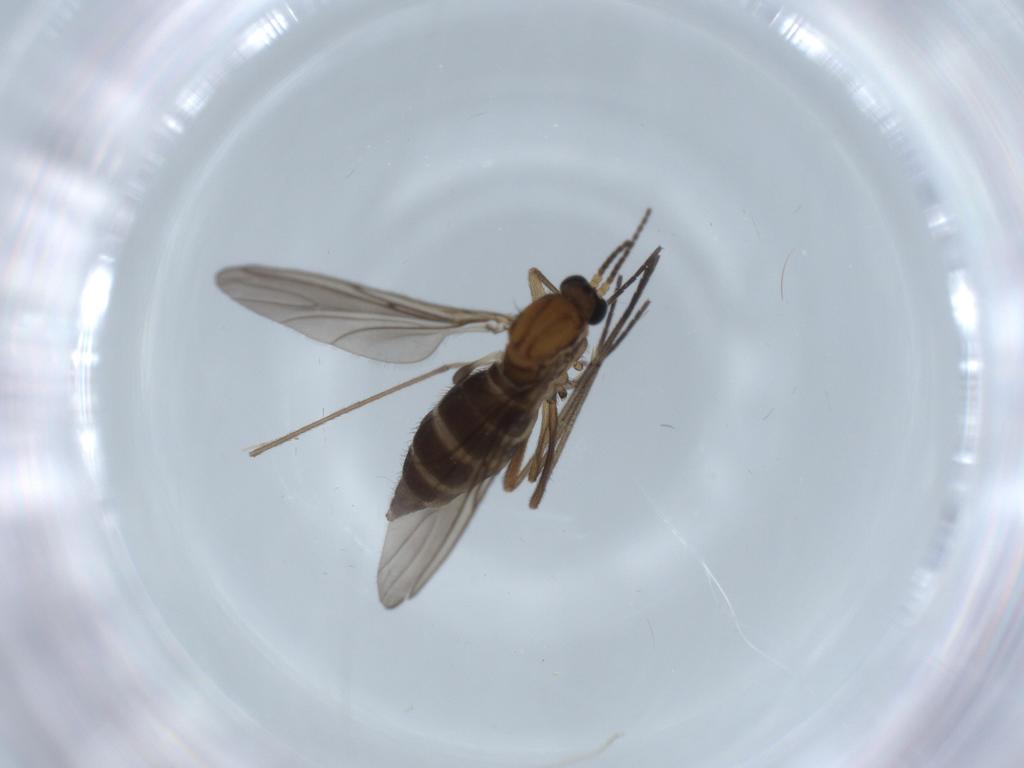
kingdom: Animalia
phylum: Arthropoda
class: Insecta
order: Diptera
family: Sciaridae
